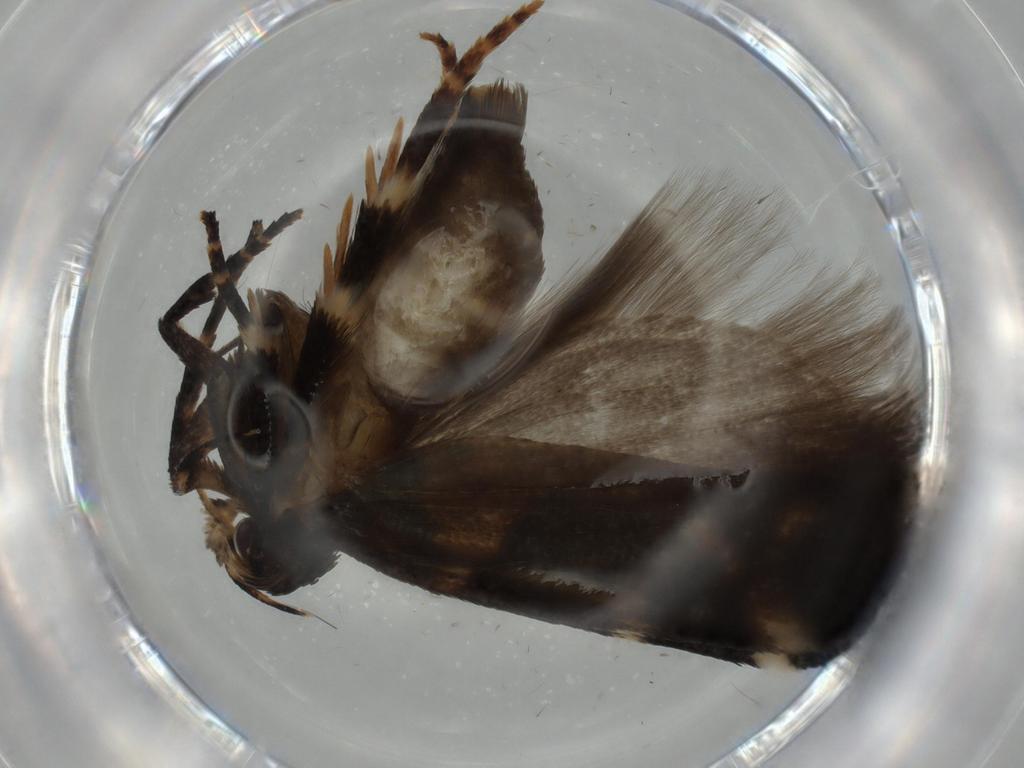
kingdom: Animalia
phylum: Arthropoda
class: Insecta
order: Lepidoptera
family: Gelechiidae
